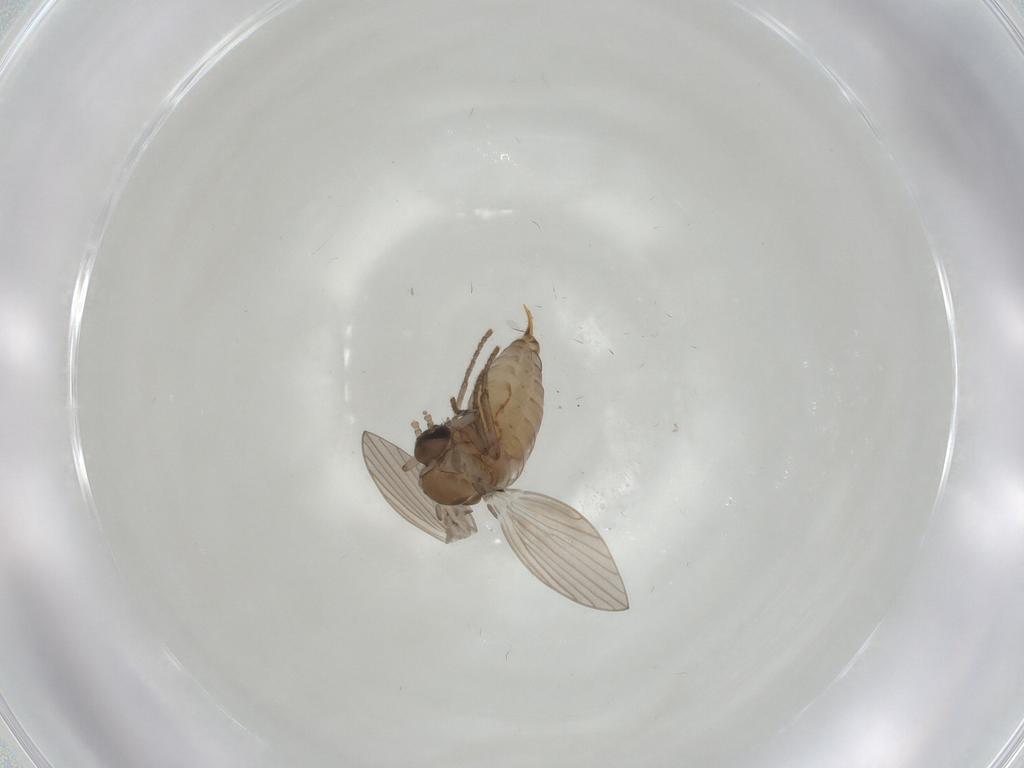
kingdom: Animalia
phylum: Arthropoda
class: Insecta
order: Diptera
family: Psychodidae
